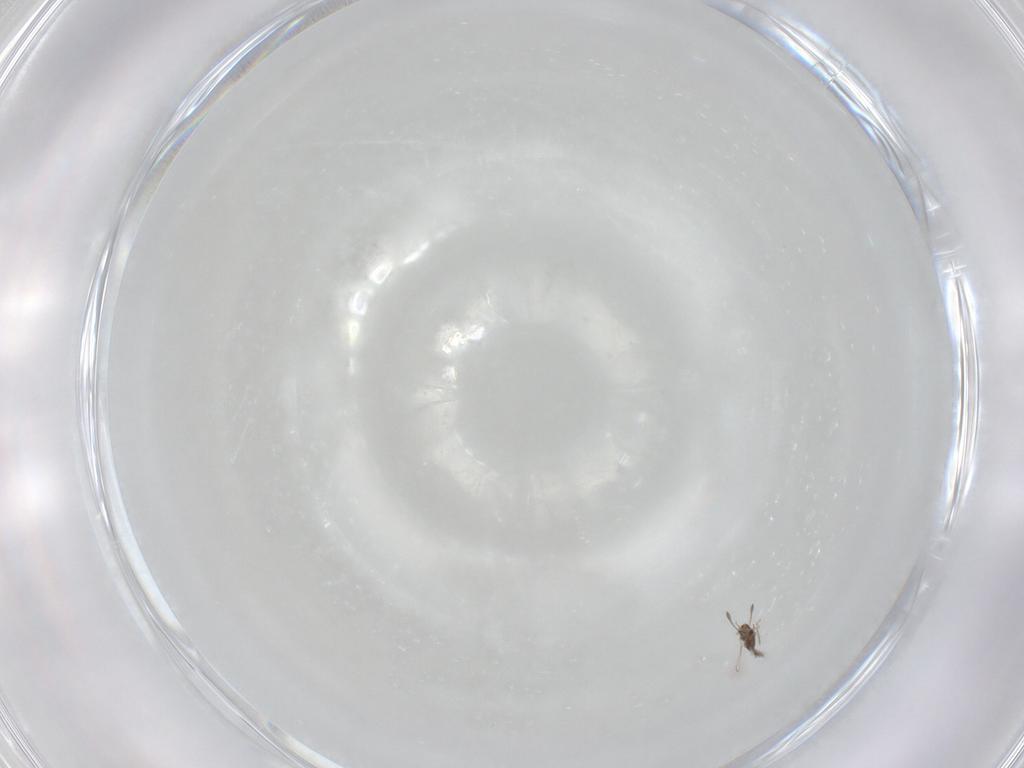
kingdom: Animalia
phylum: Arthropoda
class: Insecta
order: Hymenoptera
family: Mymaridae
